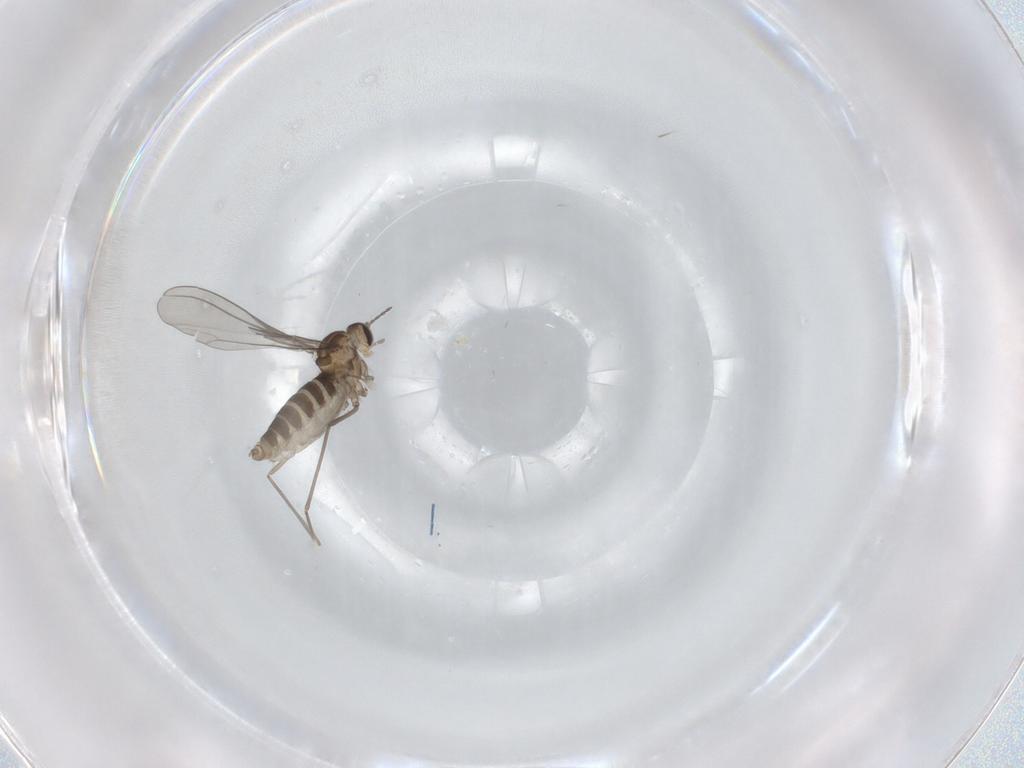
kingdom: Animalia
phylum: Arthropoda
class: Insecta
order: Diptera
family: Cecidomyiidae
